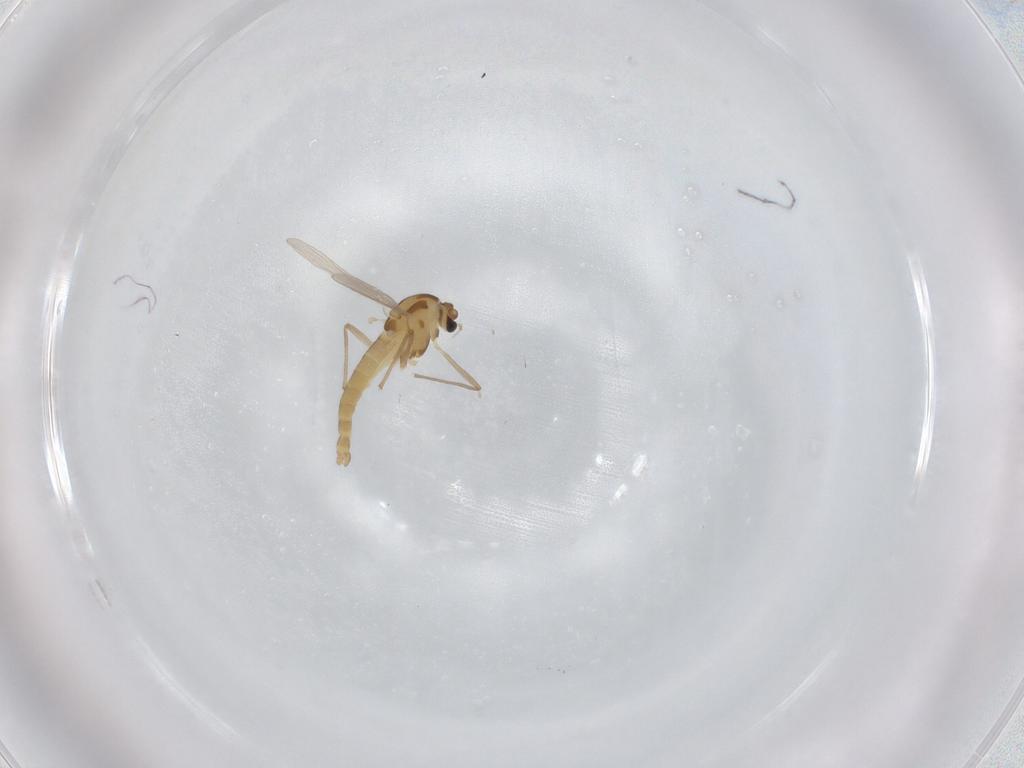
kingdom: Animalia
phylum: Arthropoda
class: Insecta
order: Diptera
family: Chironomidae
